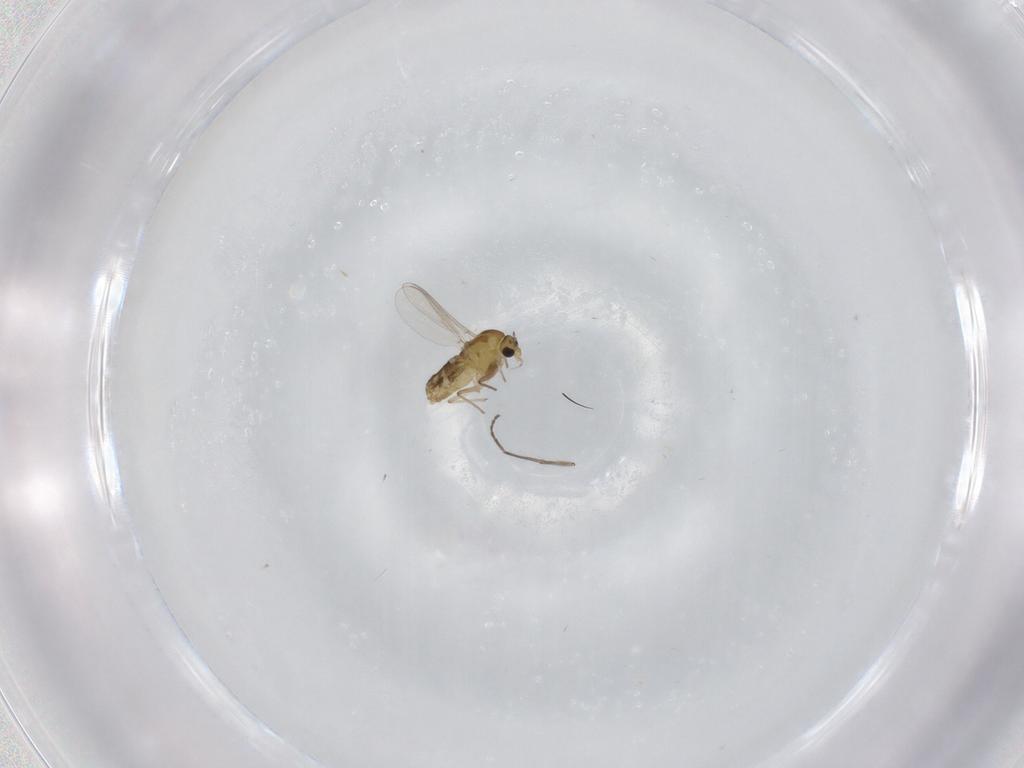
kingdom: Animalia
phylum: Arthropoda
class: Insecta
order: Diptera
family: Chironomidae
